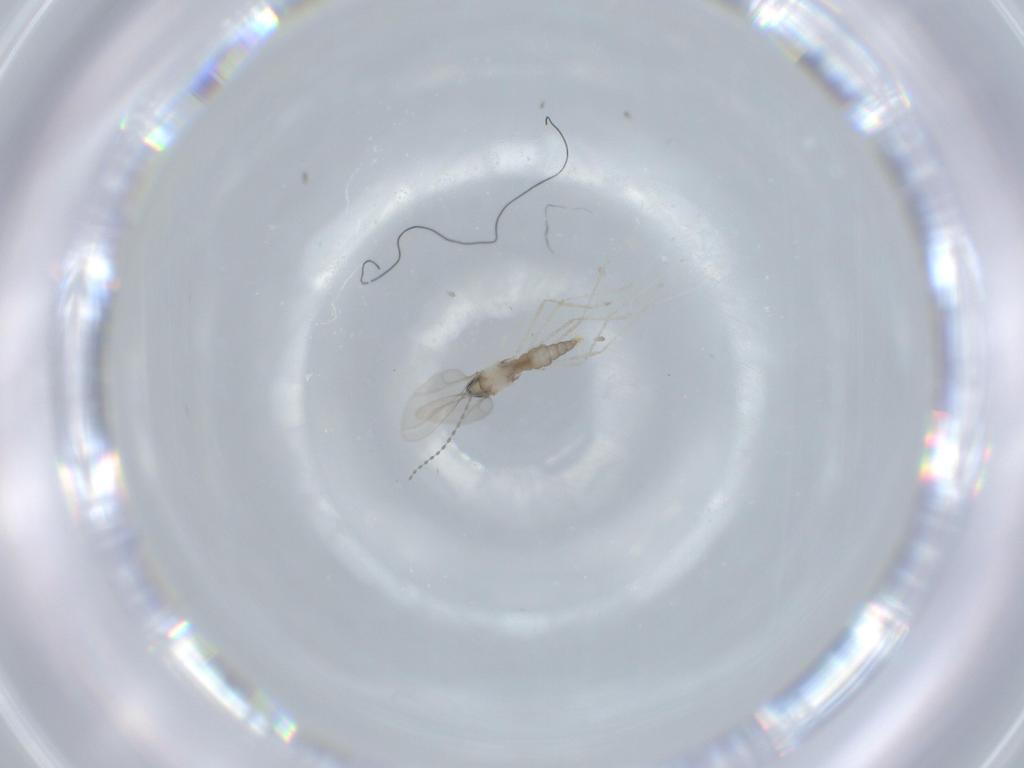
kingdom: Animalia
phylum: Arthropoda
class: Insecta
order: Diptera
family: Cecidomyiidae
